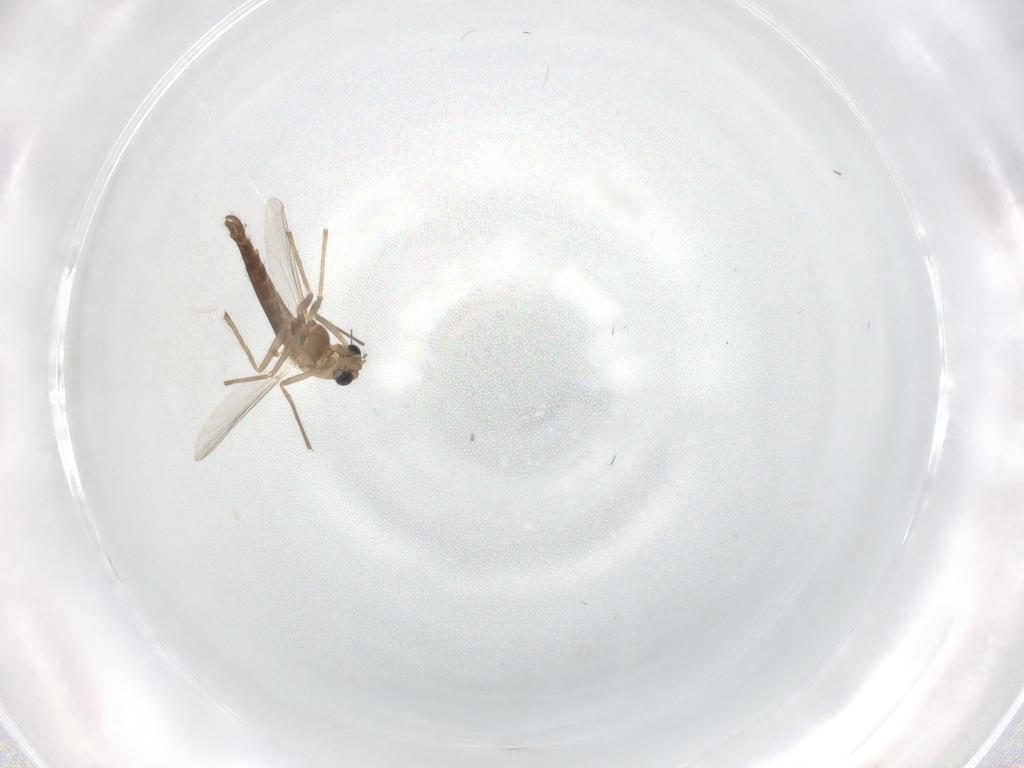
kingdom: Animalia
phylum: Arthropoda
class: Insecta
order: Diptera
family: Chironomidae
